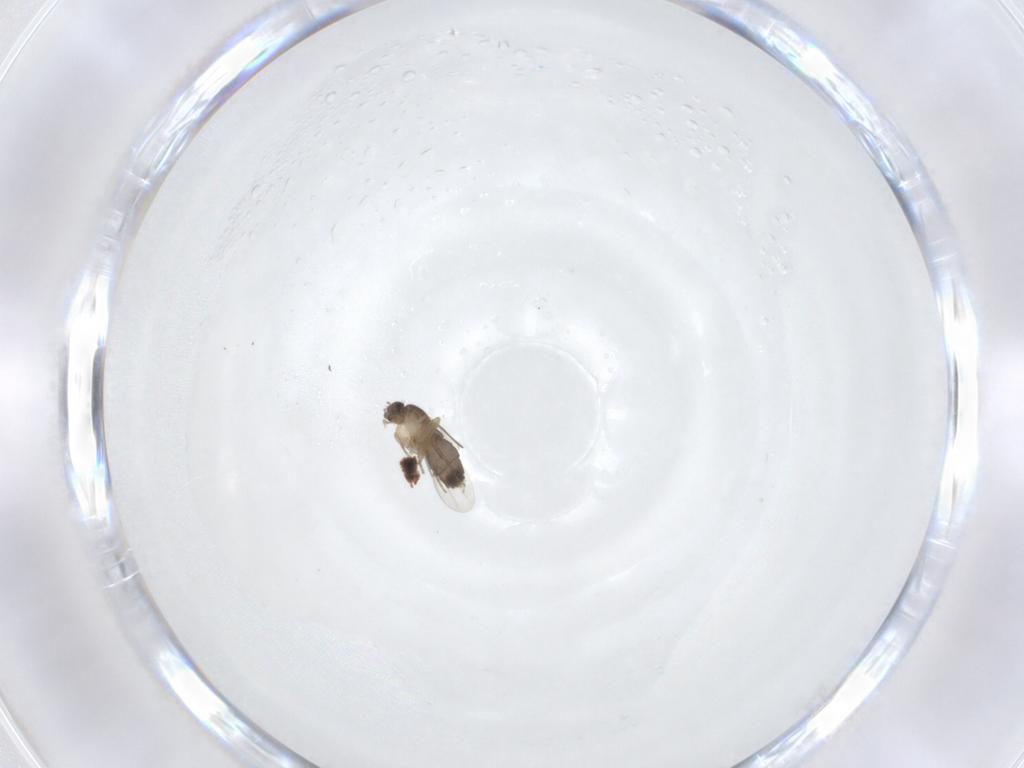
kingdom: Animalia
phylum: Arthropoda
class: Insecta
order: Diptera
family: Phoridae
